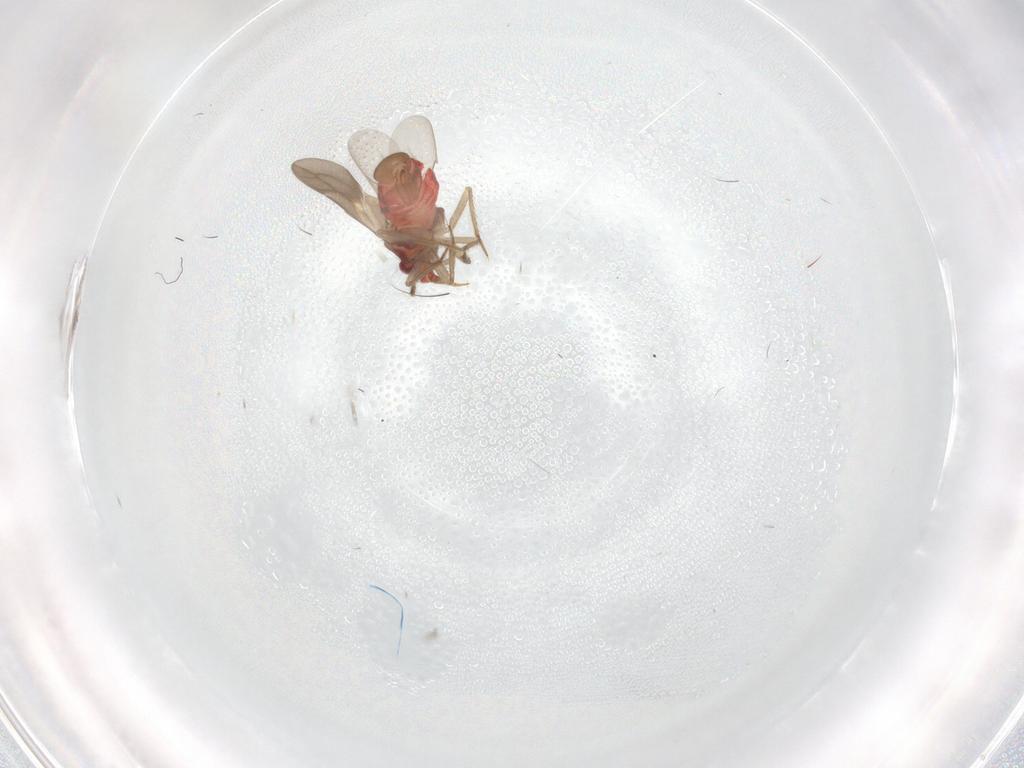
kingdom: Animalia
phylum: Arthropoda
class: Insecta
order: Hemiptera
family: Ceratocombidae
